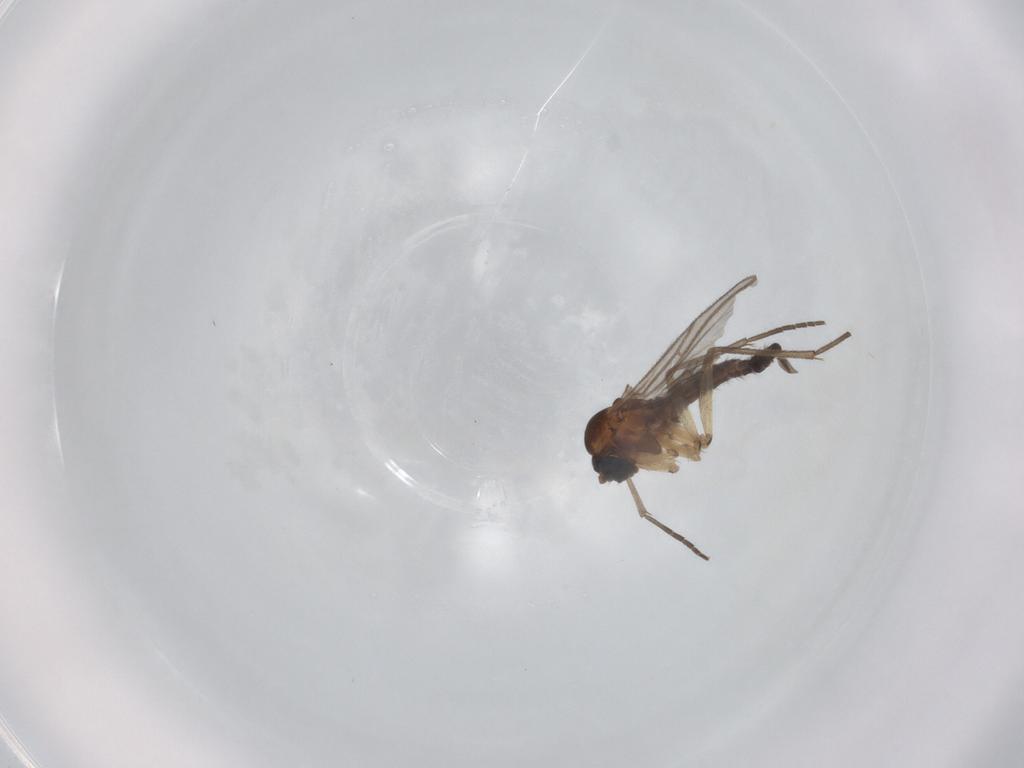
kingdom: Animalia
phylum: Arthropoda
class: Insecta
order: Diptera
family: Sciaridae
